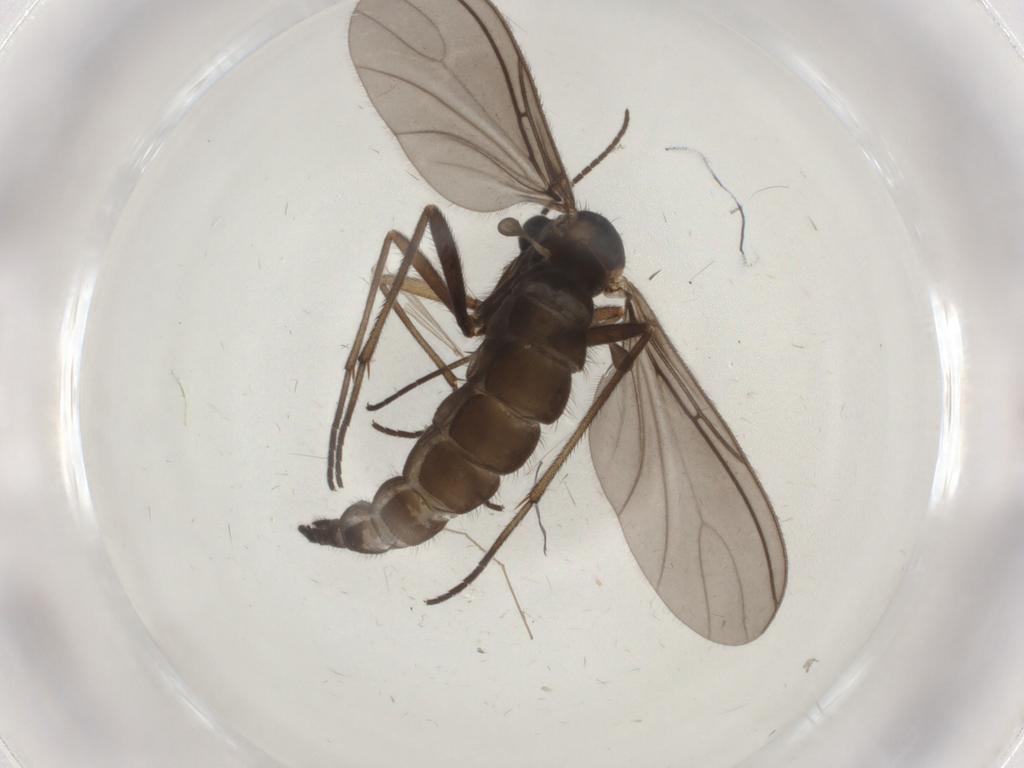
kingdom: Animalia
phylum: Arthropoda
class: Insecta
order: Diptera
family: Sciaridae
